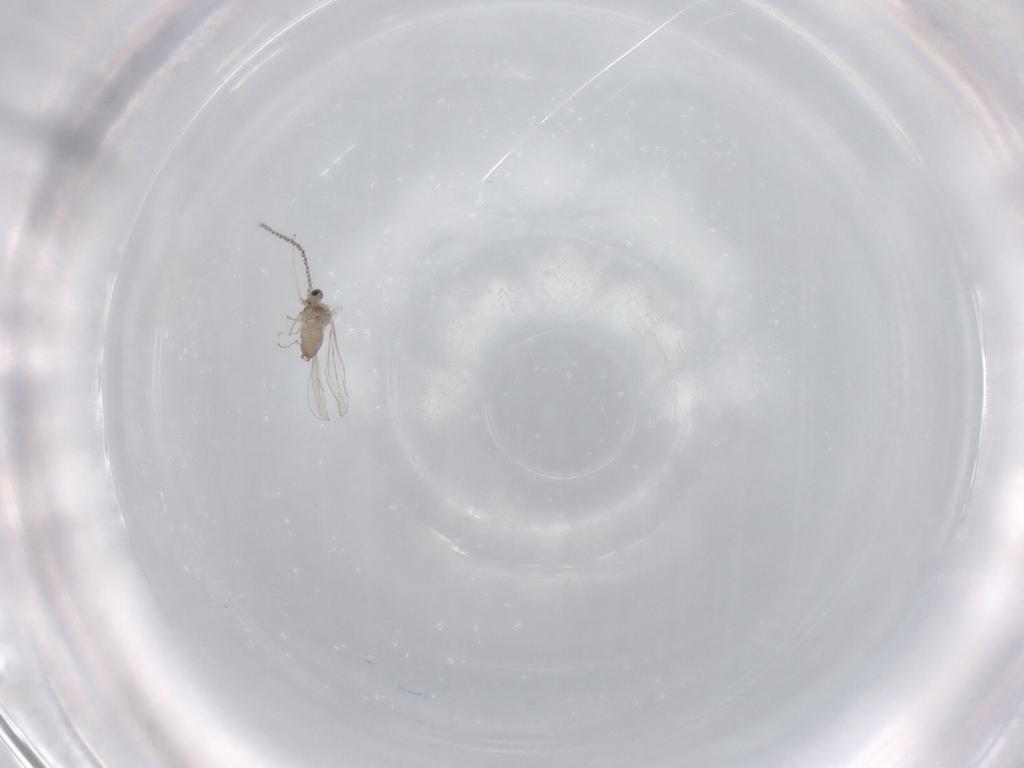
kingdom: Animalia
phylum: Arthropoda
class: Insecta
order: Diptera
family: Cecidomyiidae
